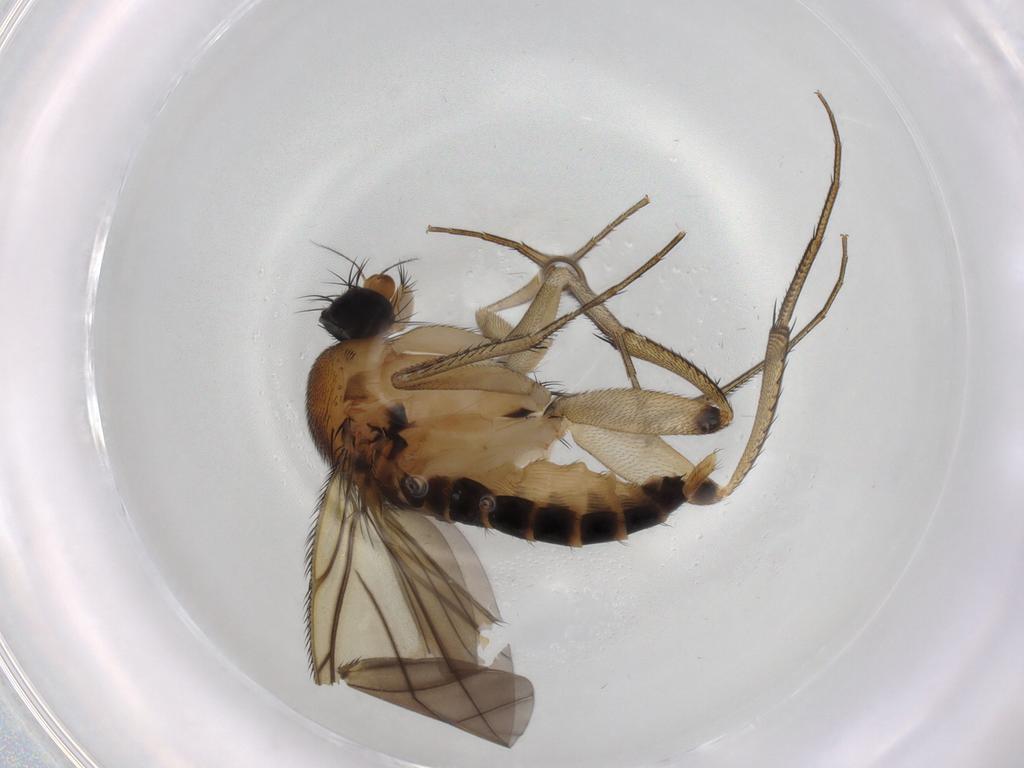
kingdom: Animalia
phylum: Arthropoda
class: Insecta
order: Diptera
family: Phoridae
